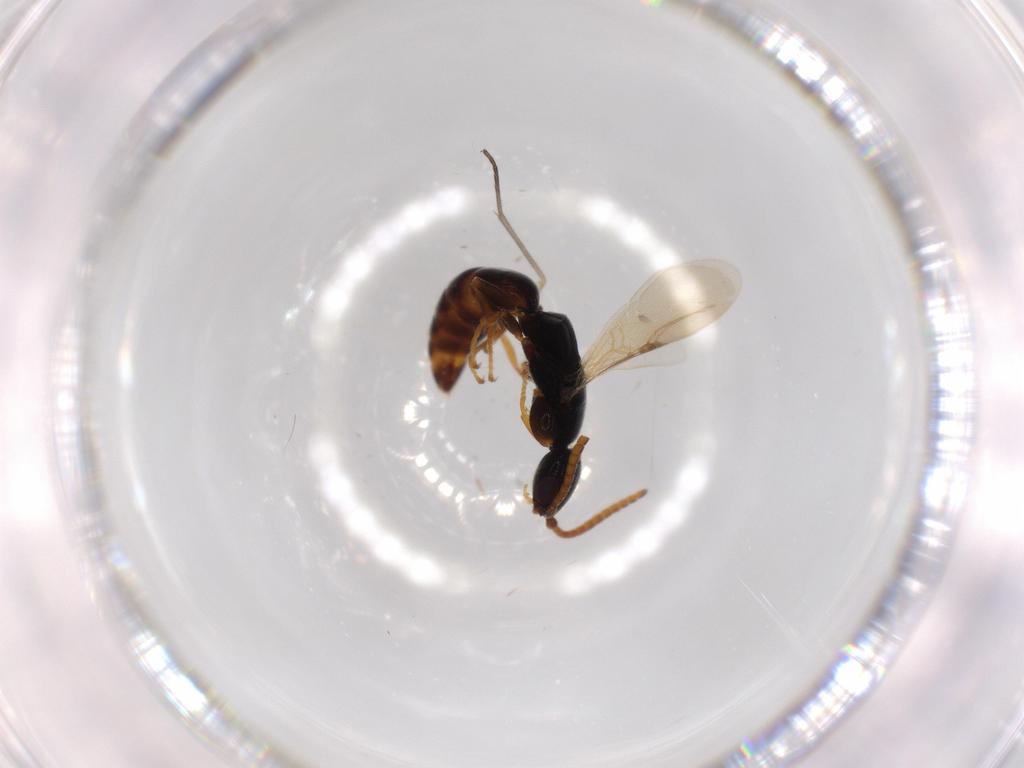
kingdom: Animalia
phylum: Arthropoda
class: Insecta
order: Hymenoptera
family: Bethylidae
